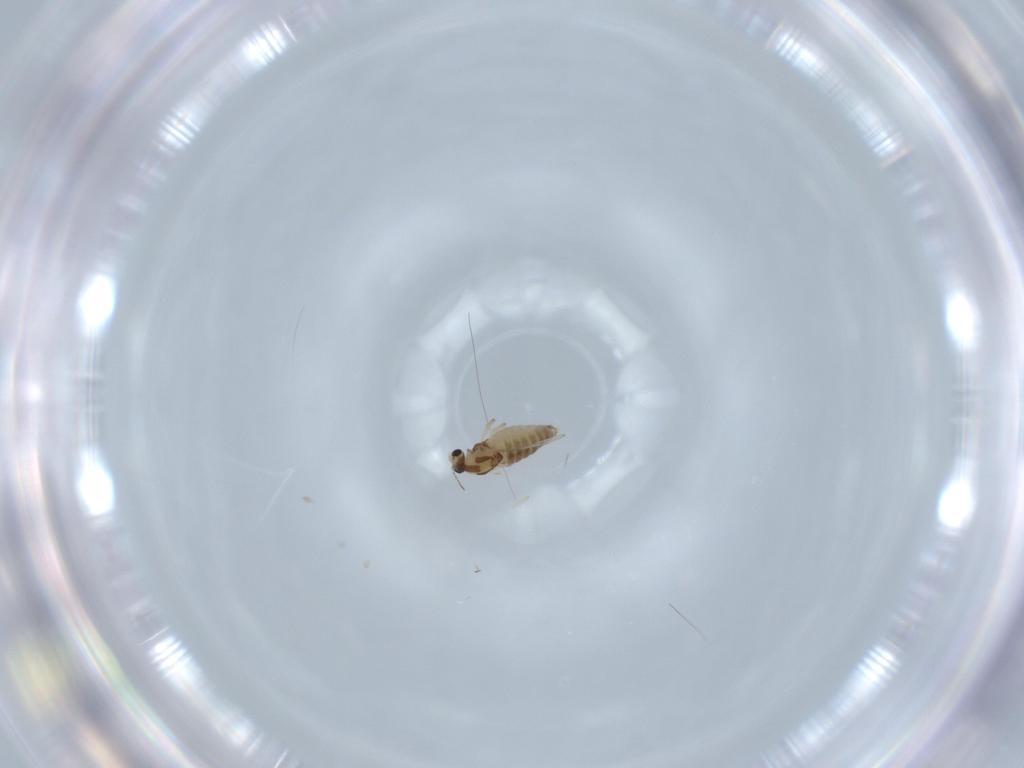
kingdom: Animalia
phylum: Arthropoda
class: Insecta
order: Diptera
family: Chironomidae
